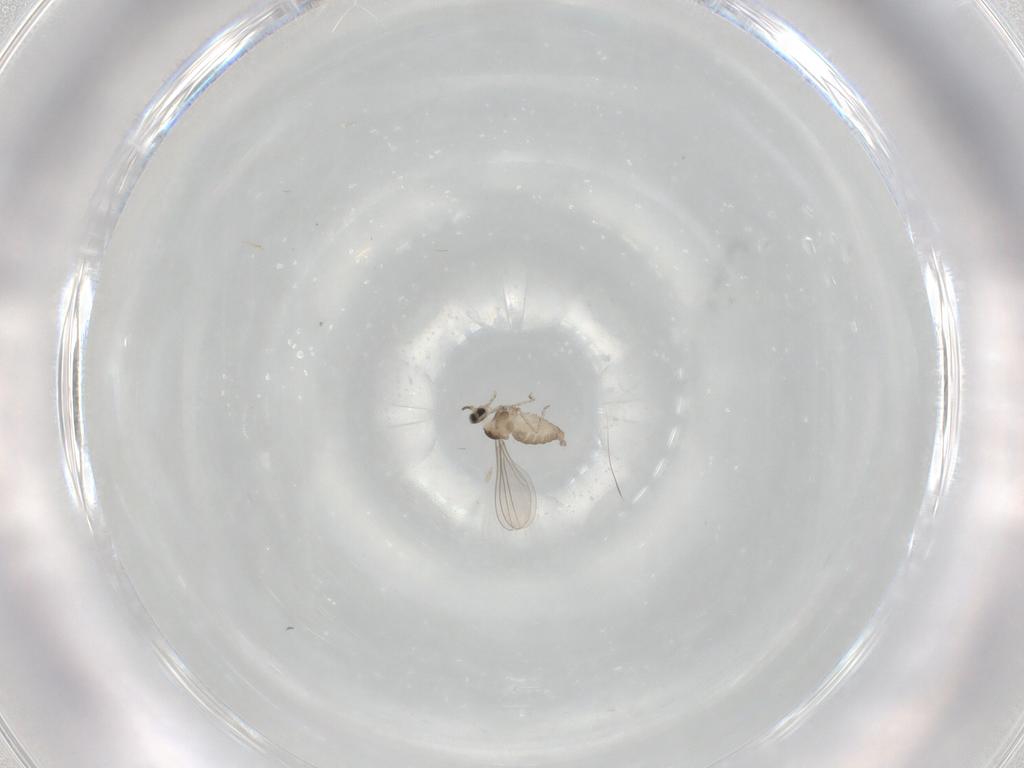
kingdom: Animalia
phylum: Arthropoda
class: Insecta
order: Diptera
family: Cecidomyiidae
